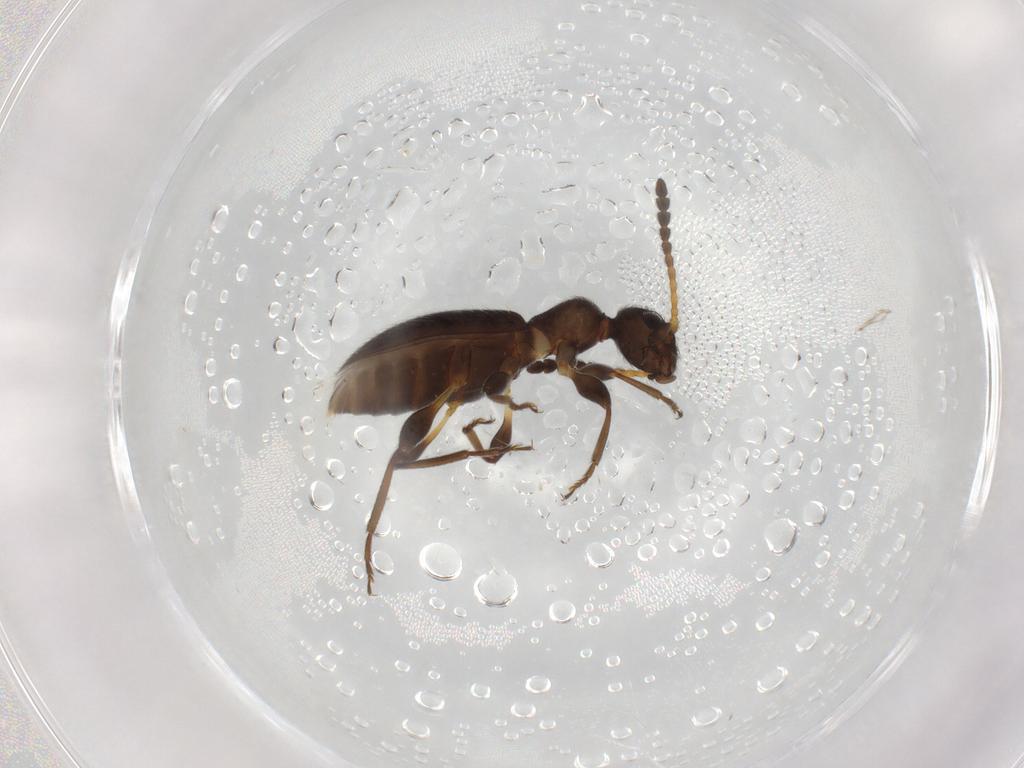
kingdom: Animalia
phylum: Arthropoda
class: Insecta
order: Coleoptera
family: Anthicidae
